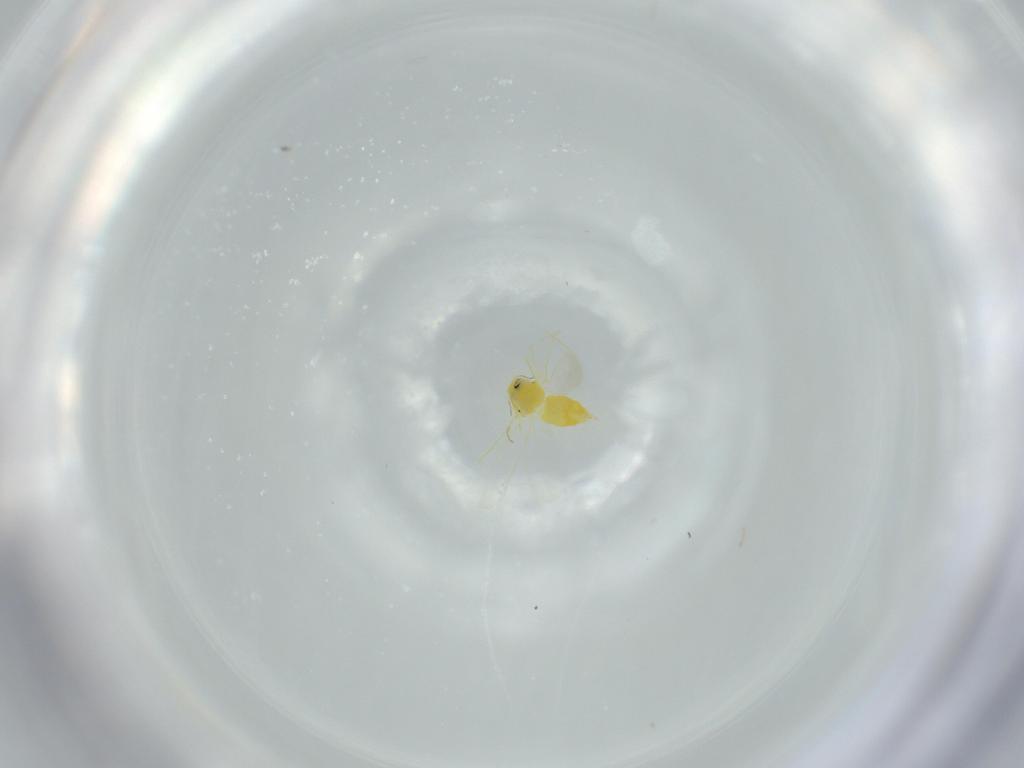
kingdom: Animalia
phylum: Arthropoda
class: Insecta
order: Hemiptera
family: Aleyrodidae
